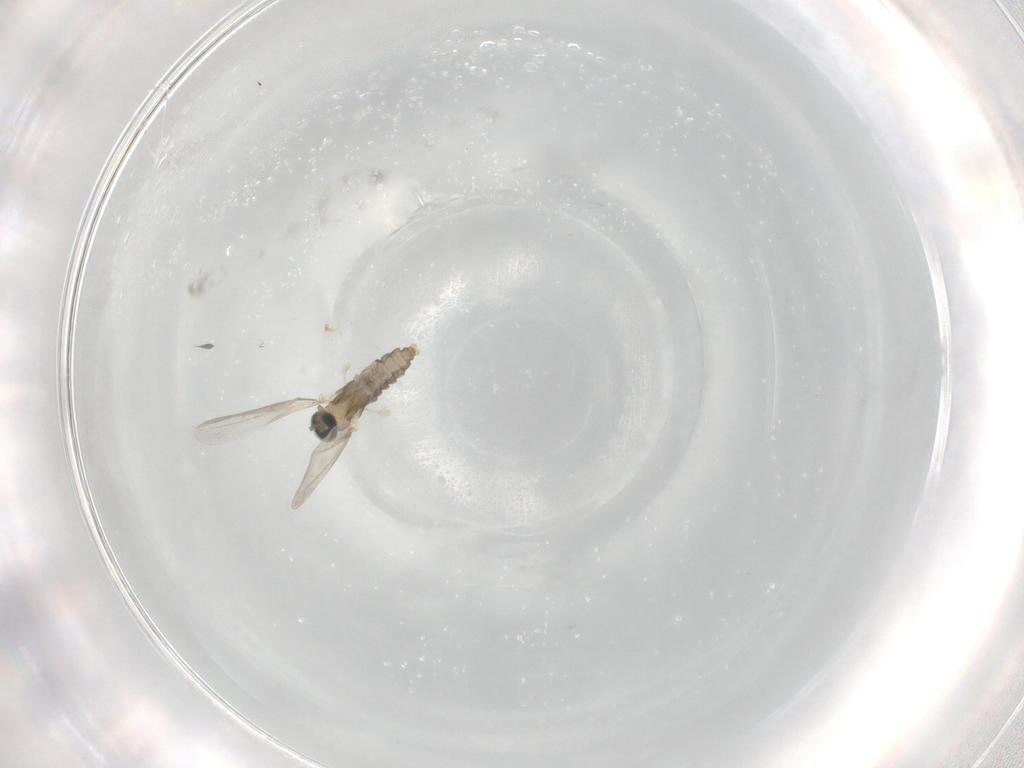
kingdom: Animalia
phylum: Arthropoda
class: Insecta
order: Diptera
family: Cecidomyiidae
